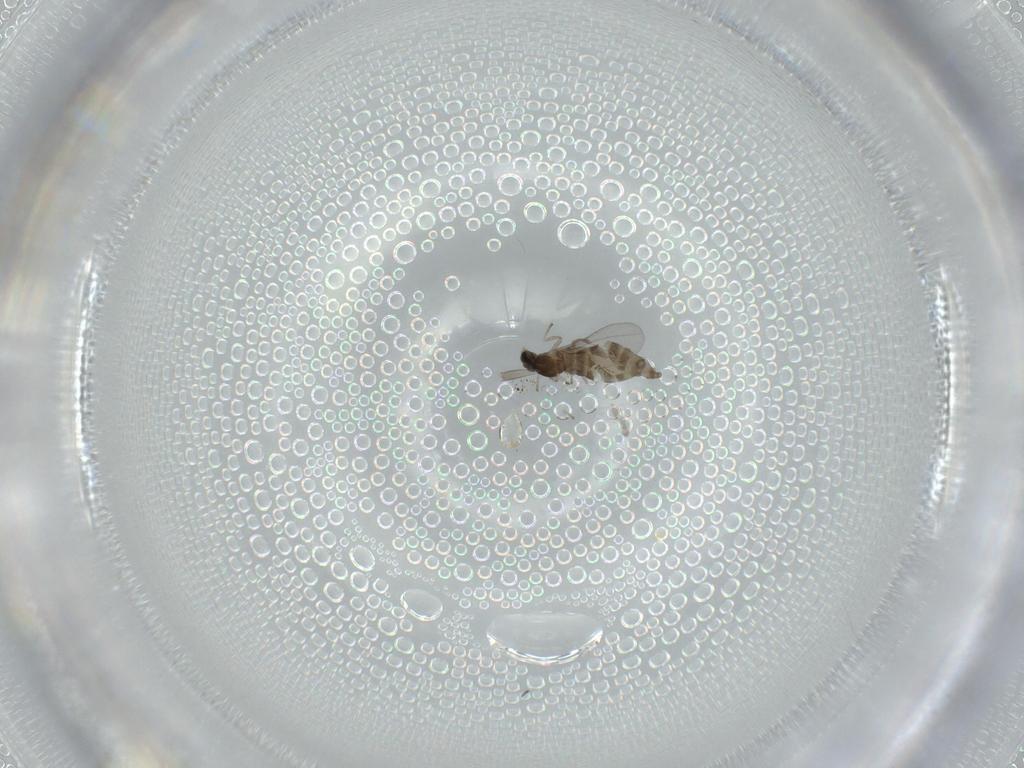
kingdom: Animalia
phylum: Arthropoda
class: Insecta
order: Diptera
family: Cecidomyiidae
